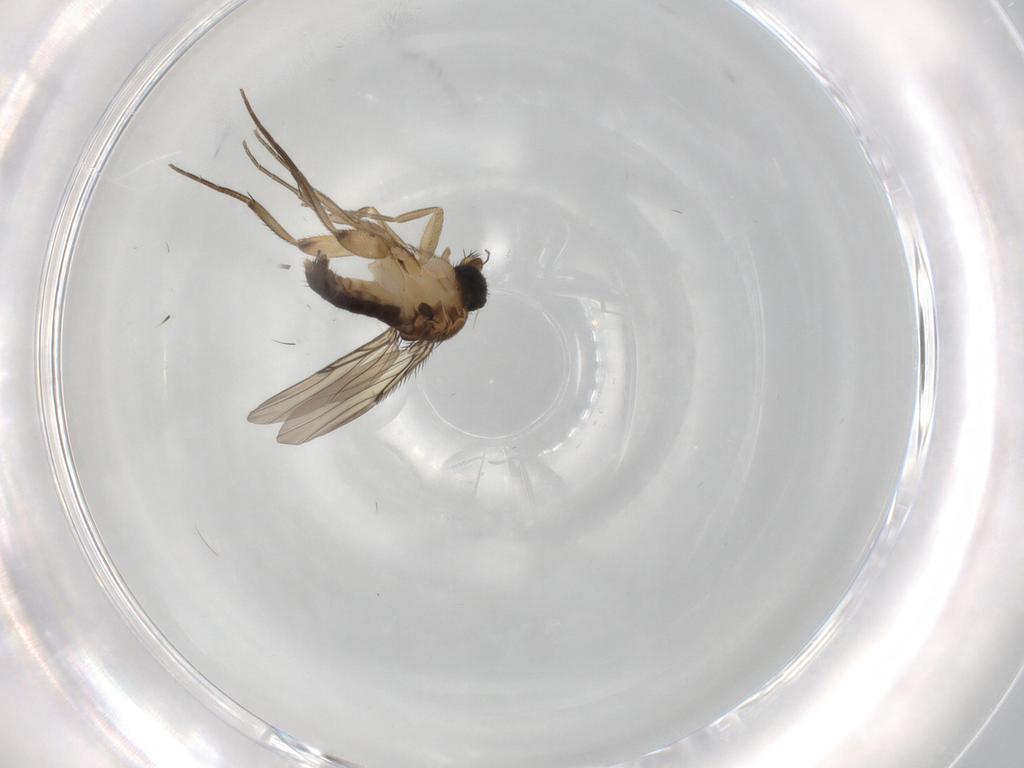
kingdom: Animalia
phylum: Arthropoda
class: Insecta
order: Diptera
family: Phoridae
